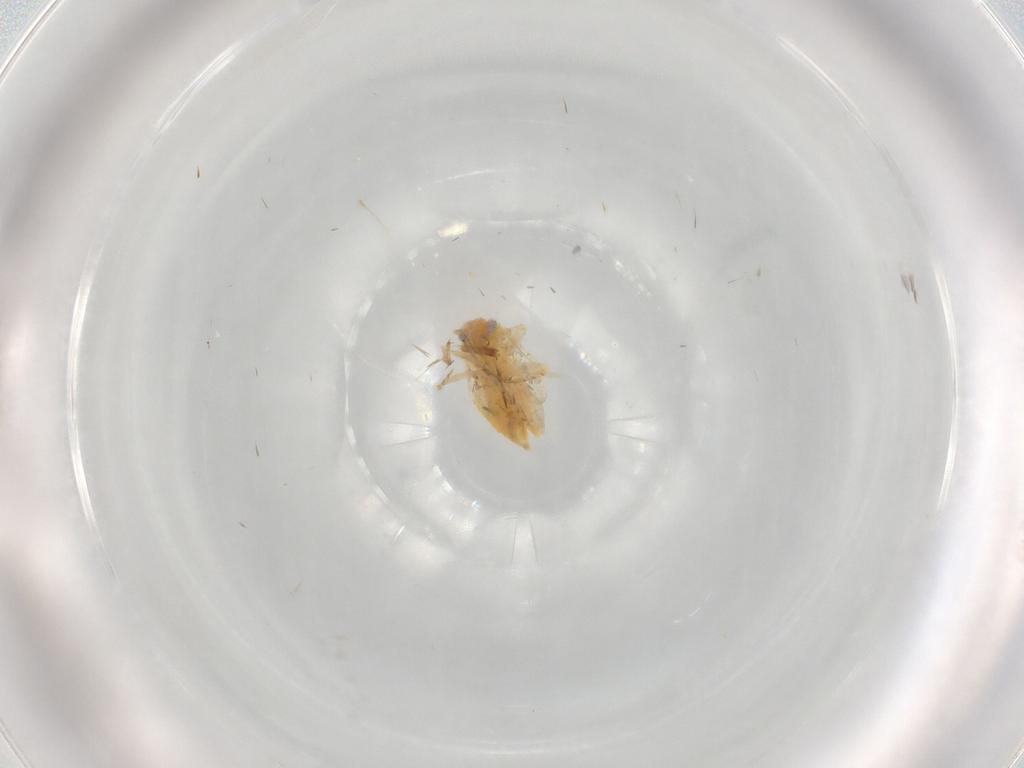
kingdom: Animalia
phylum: Arthropoda
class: Insecta
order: Hymenoptera
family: Braconidae
